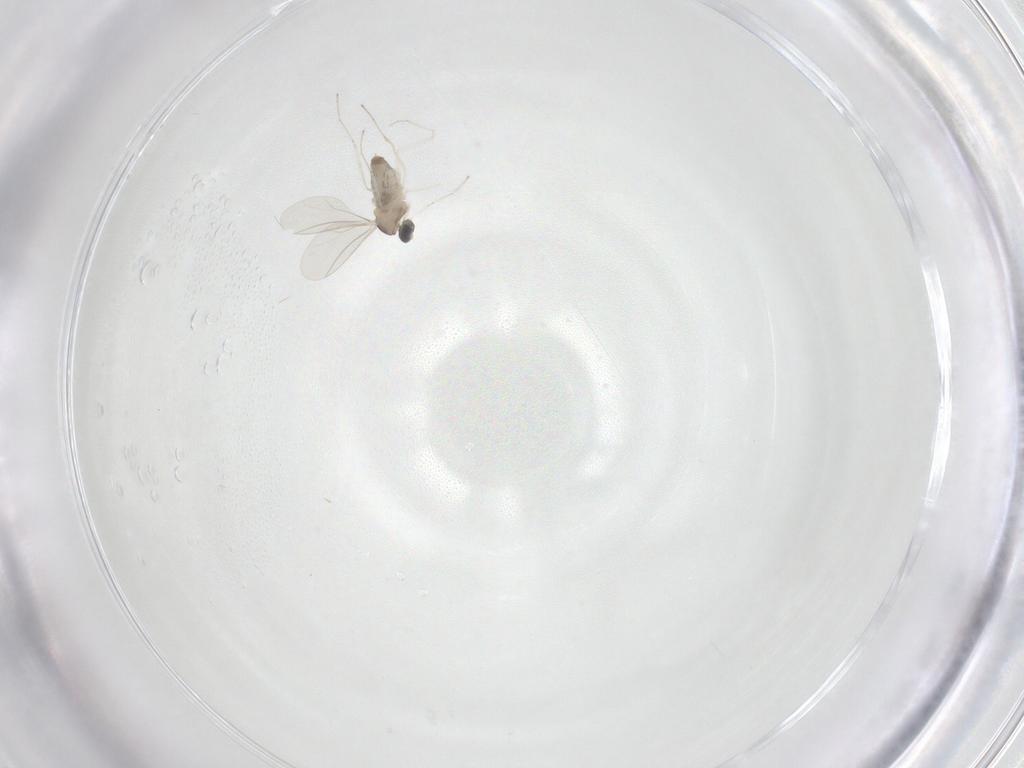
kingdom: Animalia
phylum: Arthropoda
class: Insecta
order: Diptera
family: Cecidomyiidae
